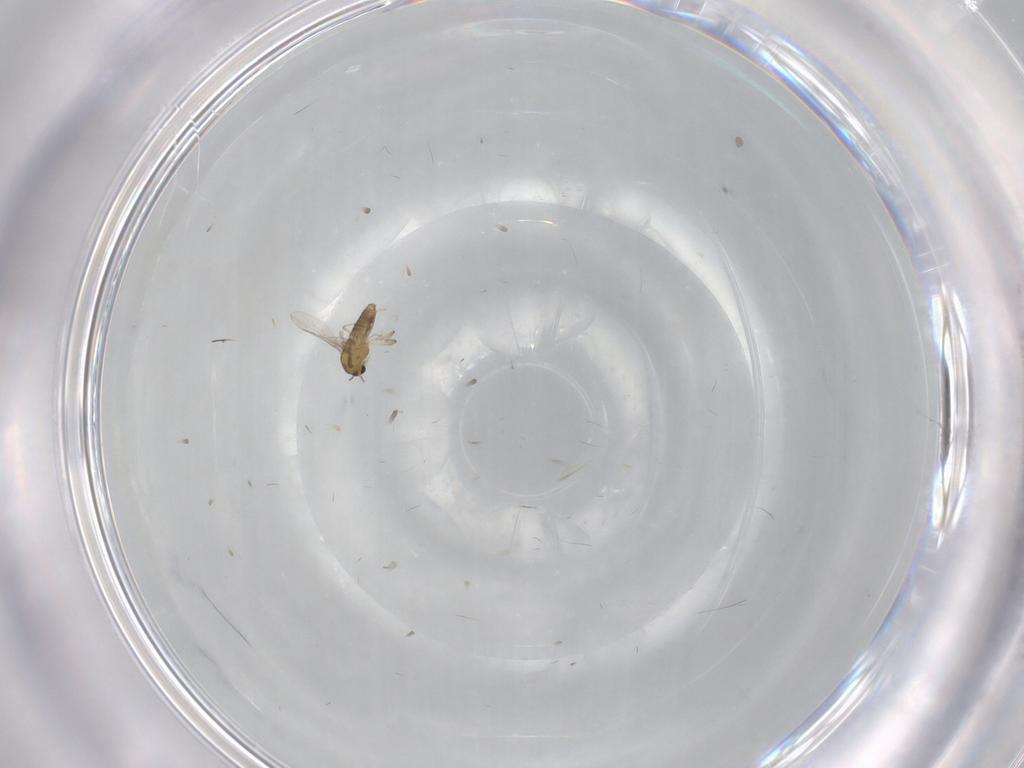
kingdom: Animalia
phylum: Arthropoda
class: Insecta
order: Diptera
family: Chironomidae
